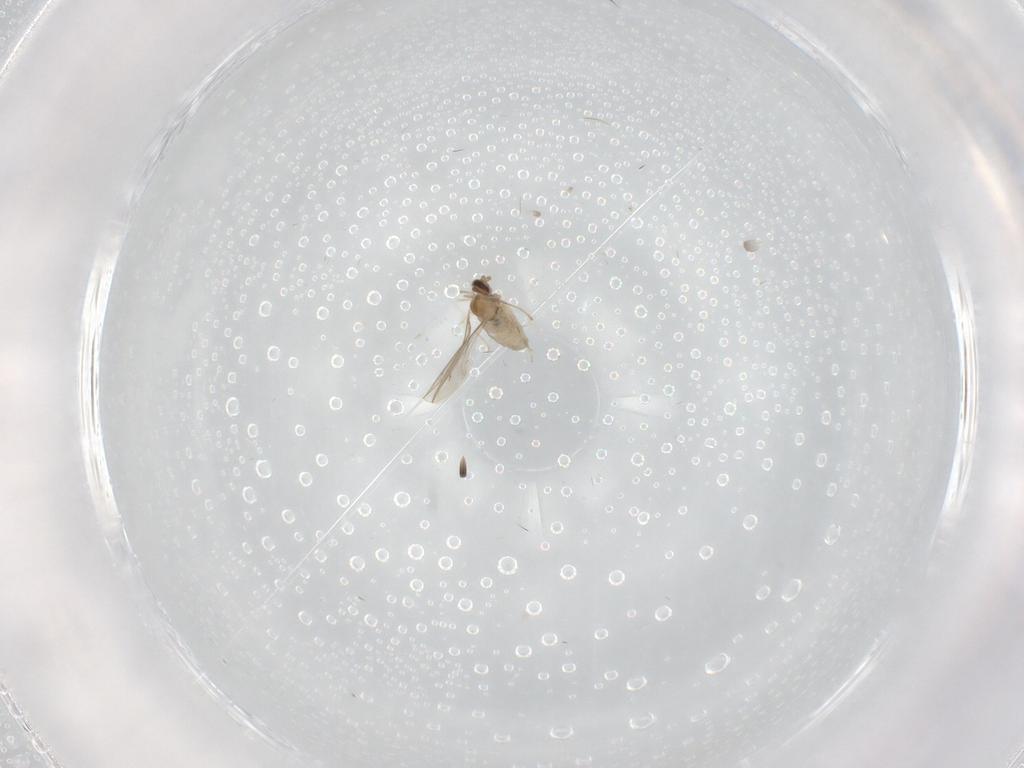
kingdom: Animalia
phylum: Arthropoda
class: Insecta
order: Diptera
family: Cecidomyiidae
